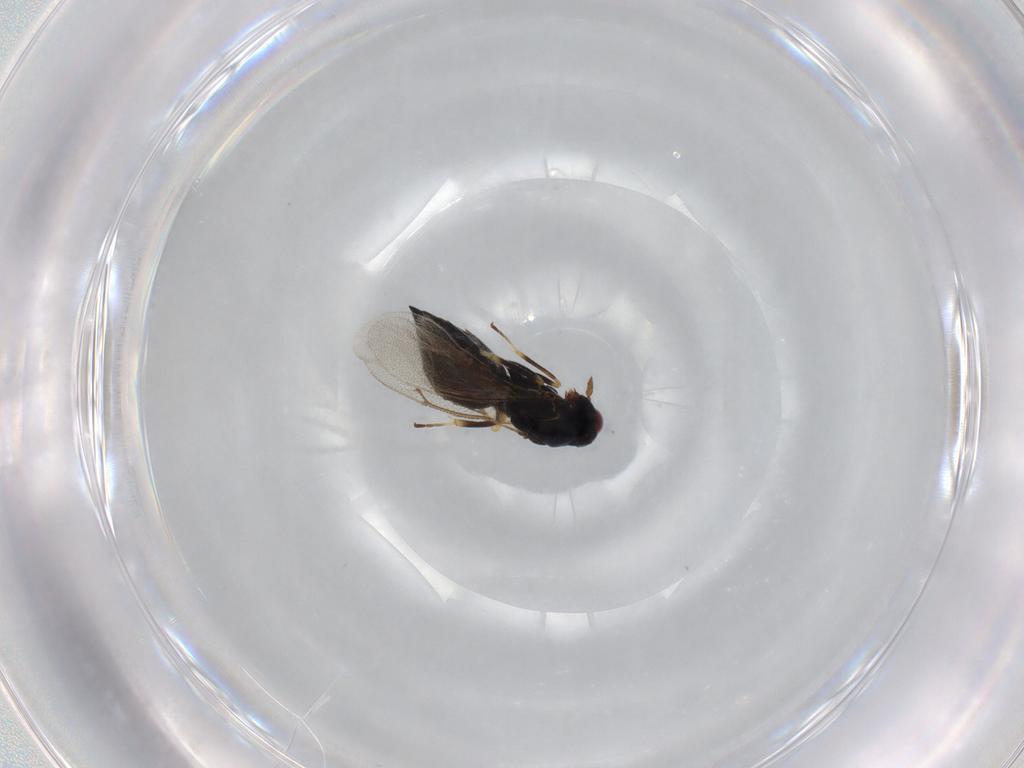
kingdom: Animalia
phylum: Arthropoda
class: Insecta
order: Hymenoptera
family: Eulophidae
